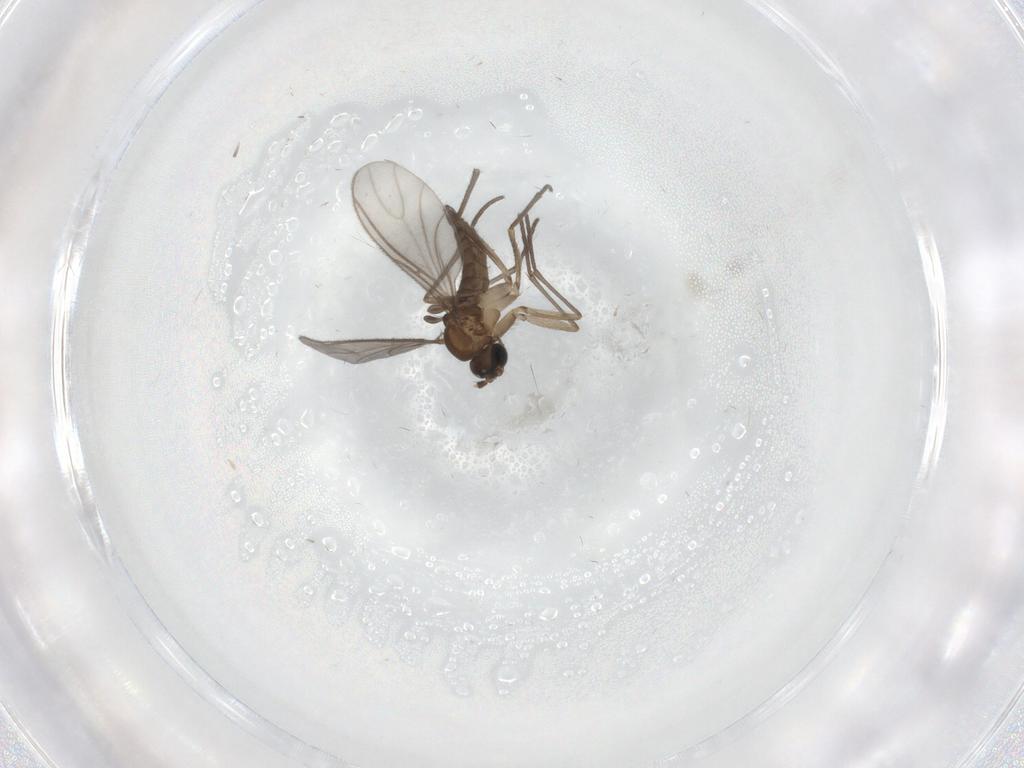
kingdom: Animalia
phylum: Arthropoda
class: Insecta
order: Diptera
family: Sciaridae
